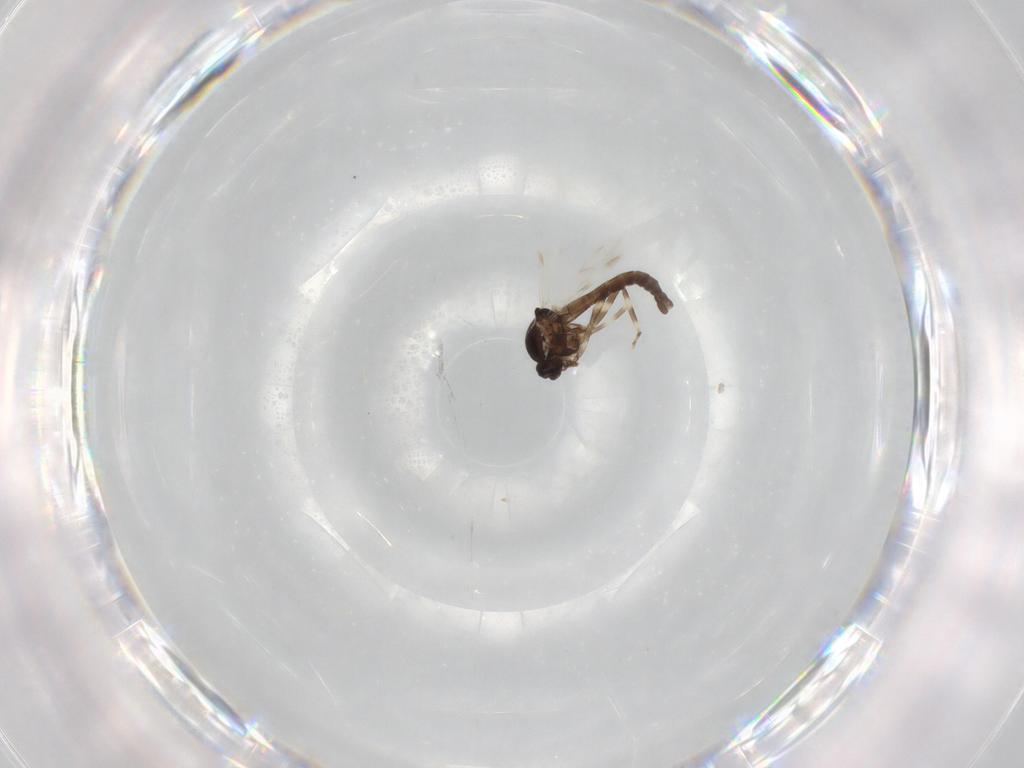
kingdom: Animalia
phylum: Arthropoda
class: Insecta
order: Diptera
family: Ceratopogonidae
